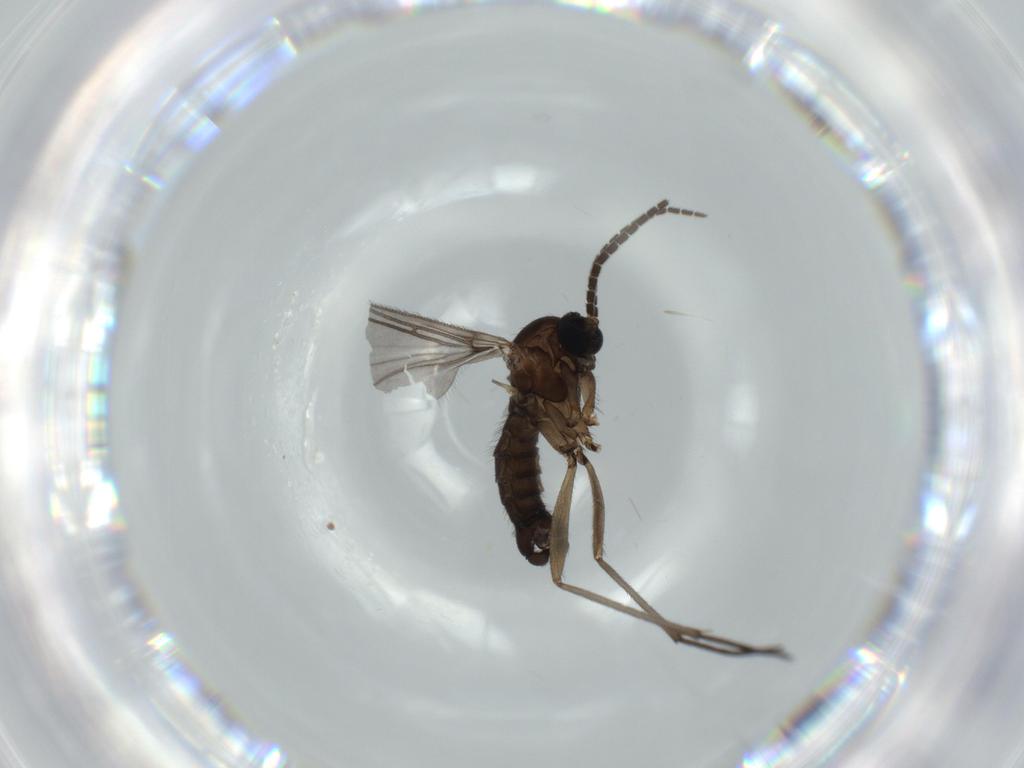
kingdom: Animalia
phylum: Arthropoda
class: Insecta
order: Diptera
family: Sciaridae
